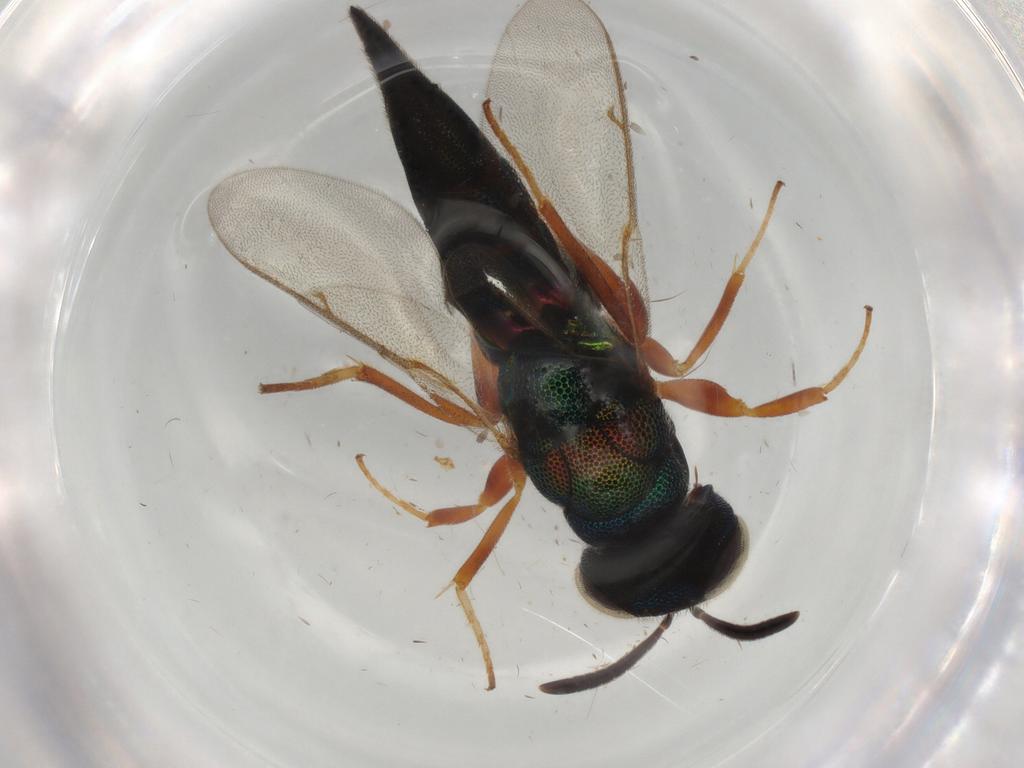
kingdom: Animalia
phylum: Arthropoda
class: Insecta
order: Hymenoptera
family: Lyciscidae
